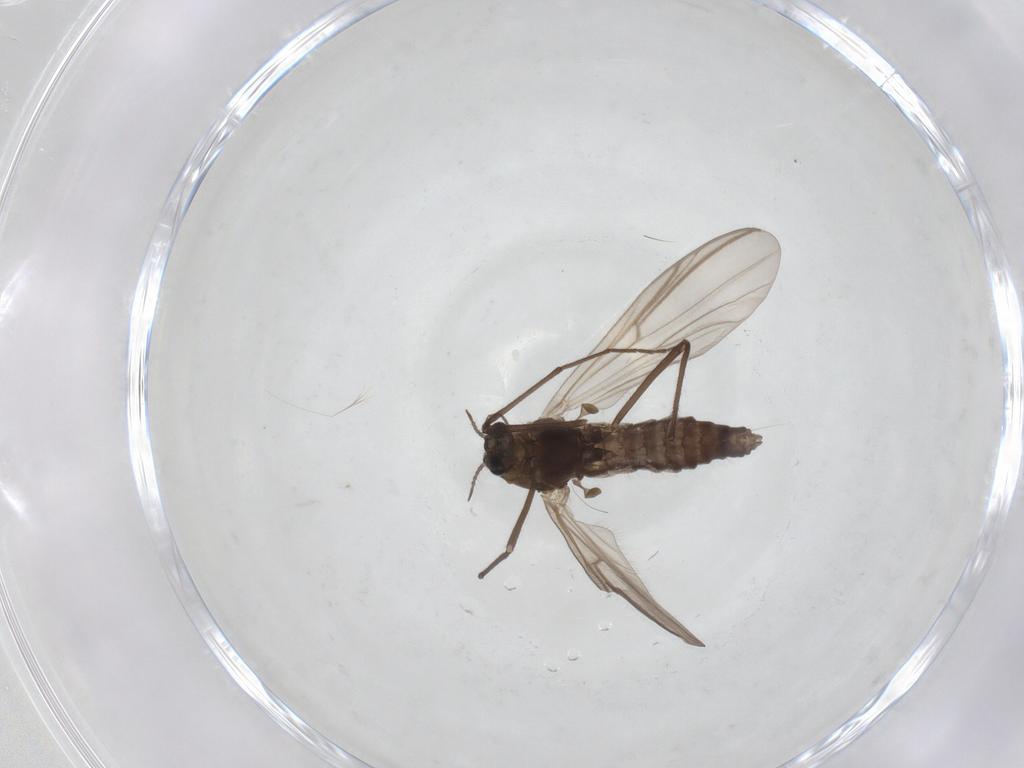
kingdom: Animalia
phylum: Arthropoda
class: Insecta
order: Diptera
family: Chironomidae
